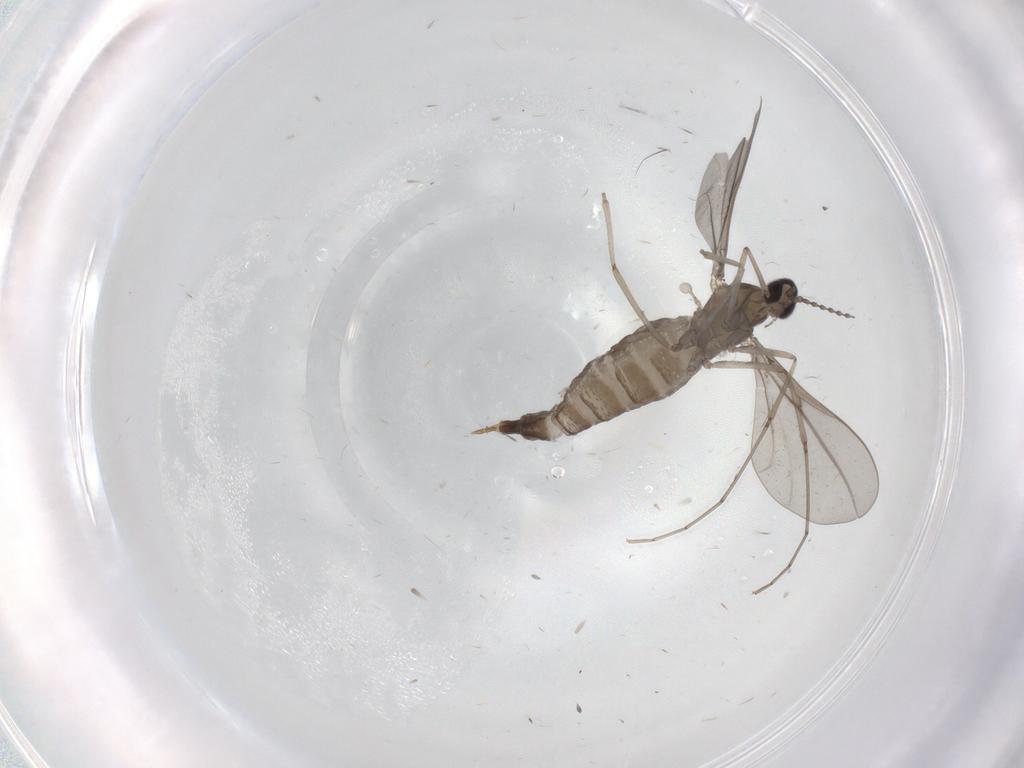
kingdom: Animalia
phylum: Arthropoda
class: Insecta
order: Diptera
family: Cecidomyiidae
